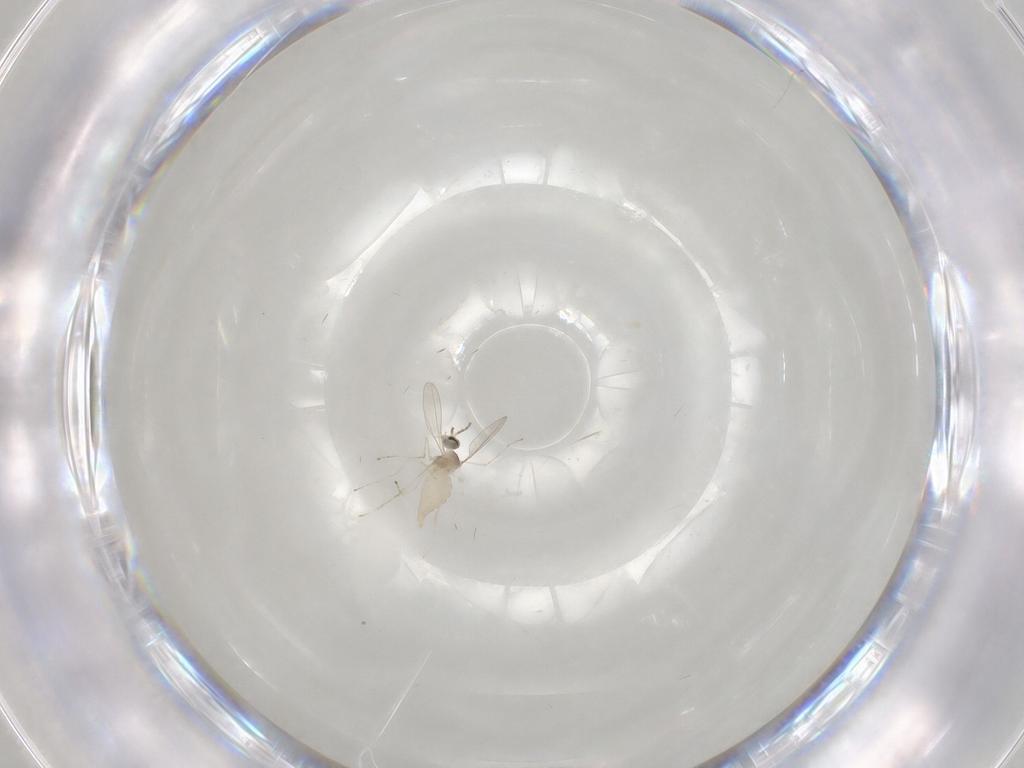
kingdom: Animalia
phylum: Arthropoda
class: Insecta
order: Diptera
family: Cecidomyiidae
